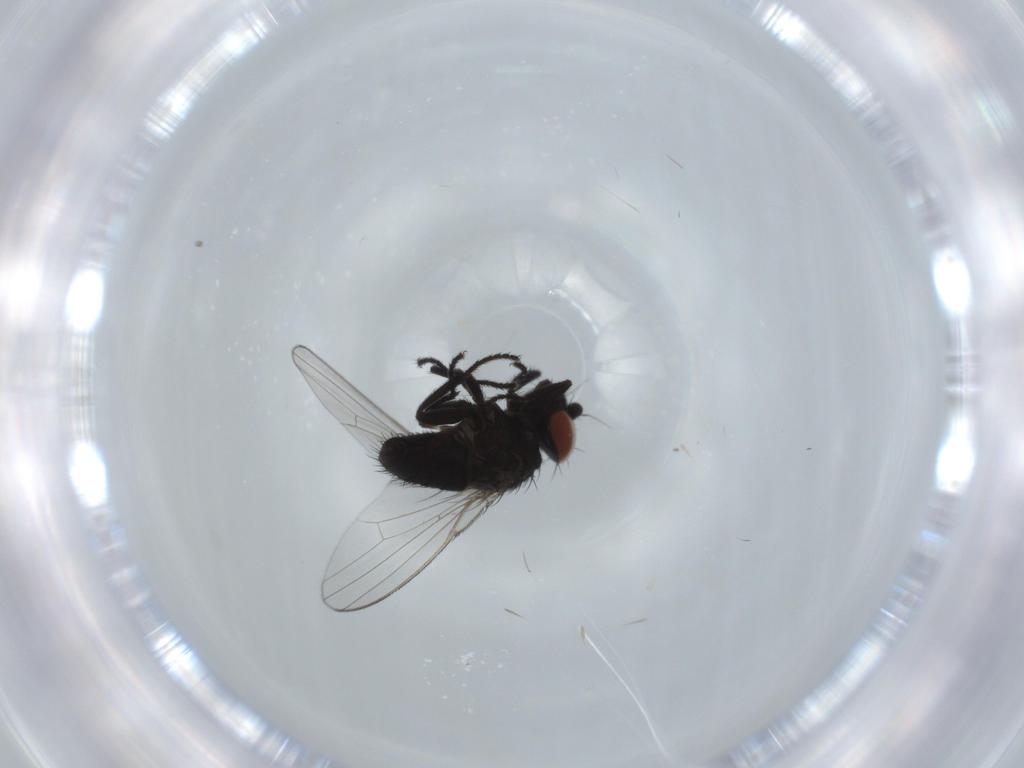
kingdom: Animalia
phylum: Arthropoda
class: Insecta
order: Diptera
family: Milichiidae
